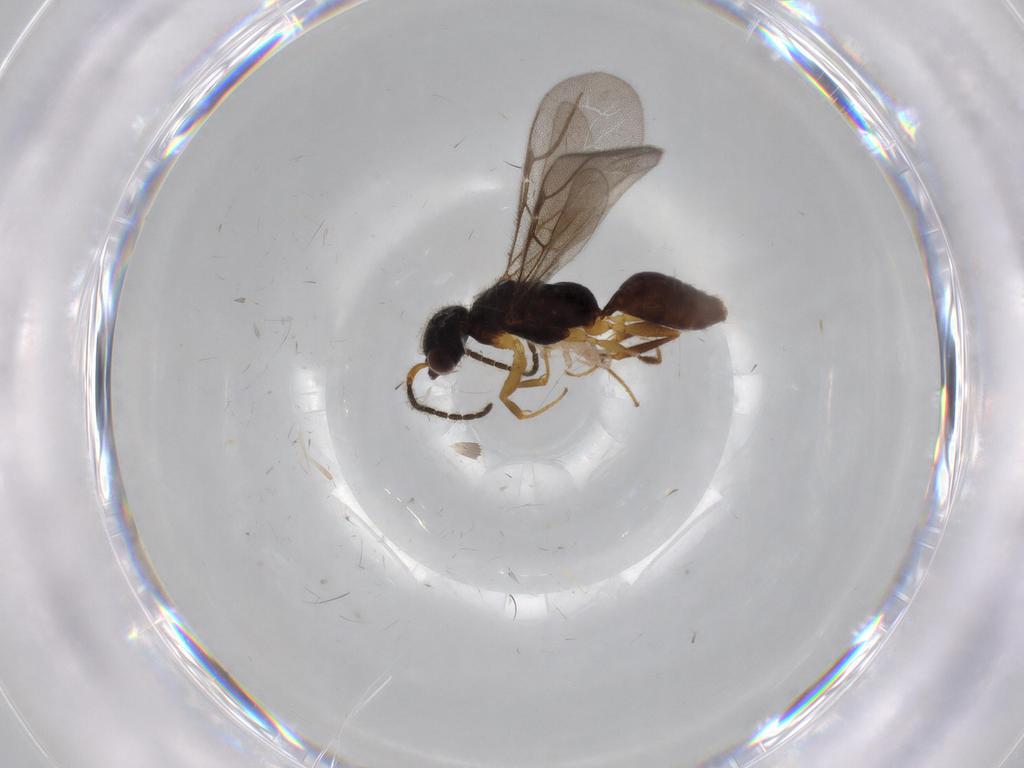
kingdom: Animalia
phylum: Arthropoda
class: Insecta
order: Hymenoptera
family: Bethylidae
